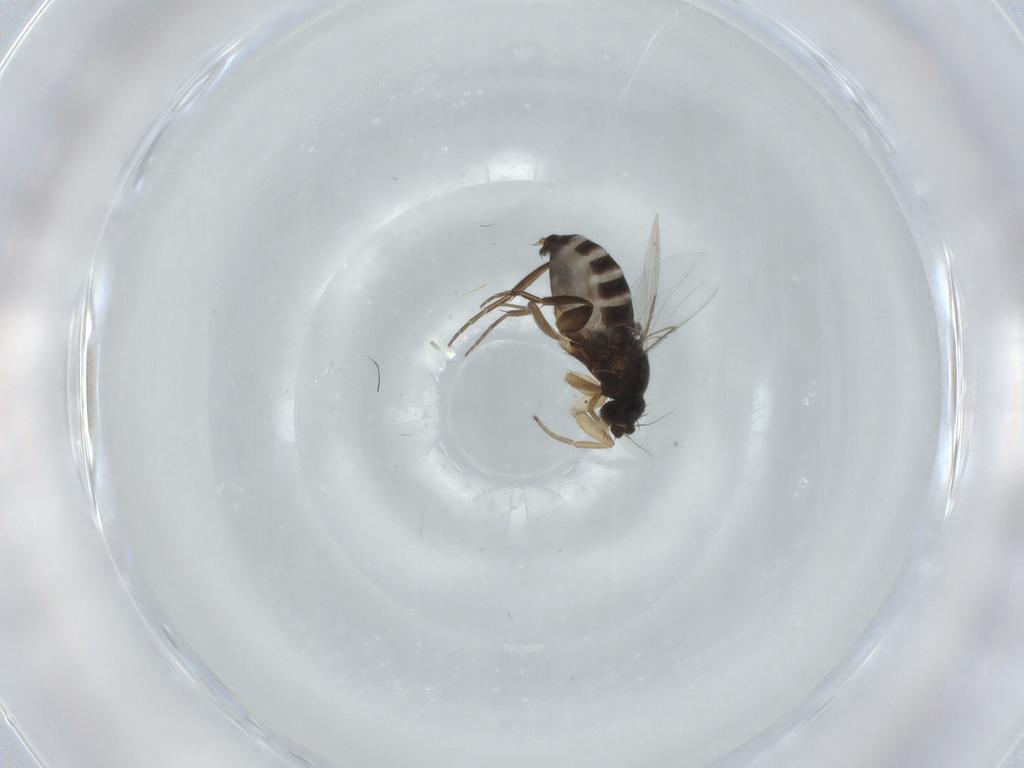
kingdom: Animalia
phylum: Arthropoda
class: Insecta
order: Diptera
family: Phoridae
